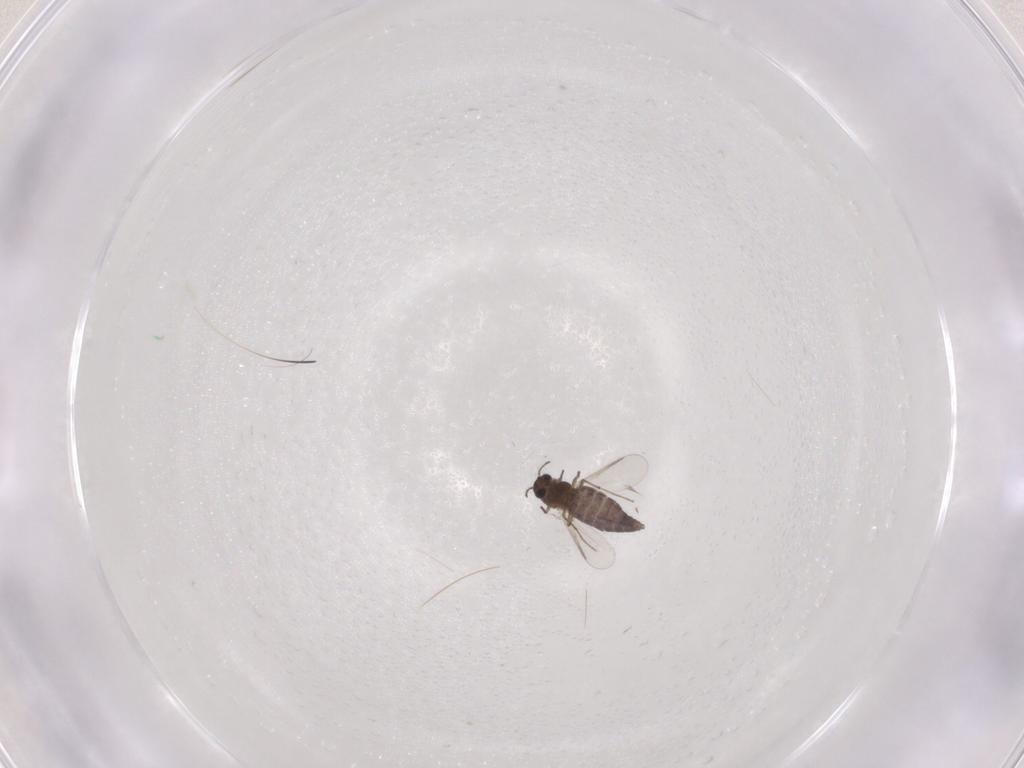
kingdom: Animalia
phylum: Arthropoda
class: Insecta
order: Diptera
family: Chironomidae
